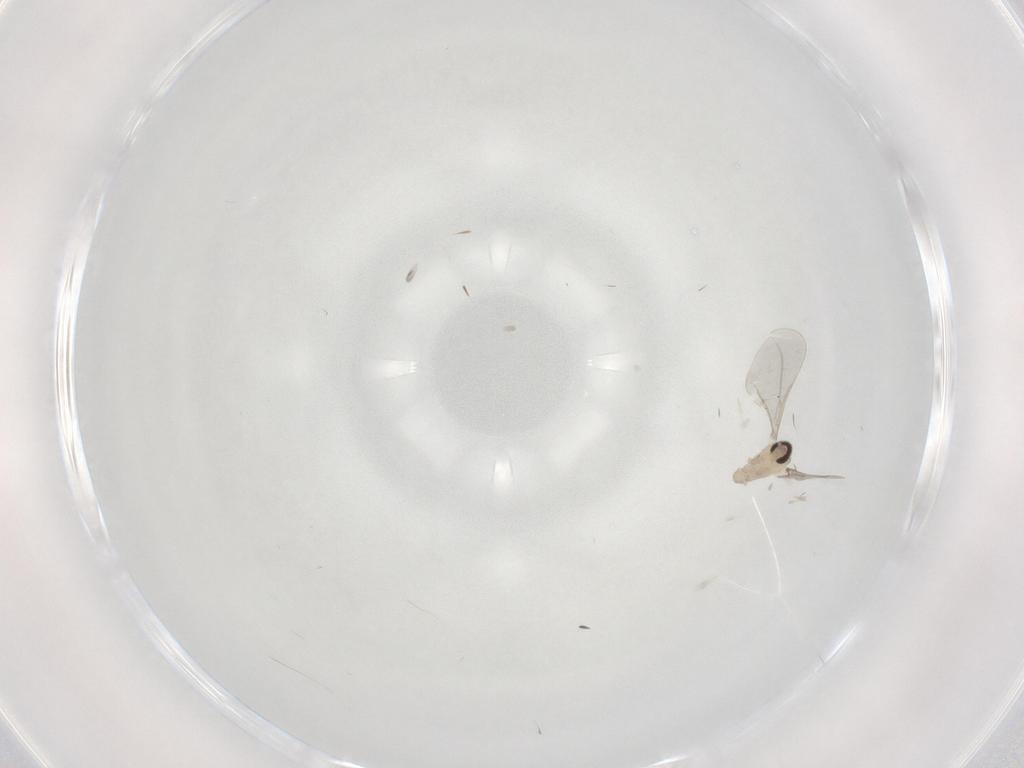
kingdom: Animalia
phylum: Arthropoda
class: Insecta
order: Diptera
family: Cecidomyiidae
